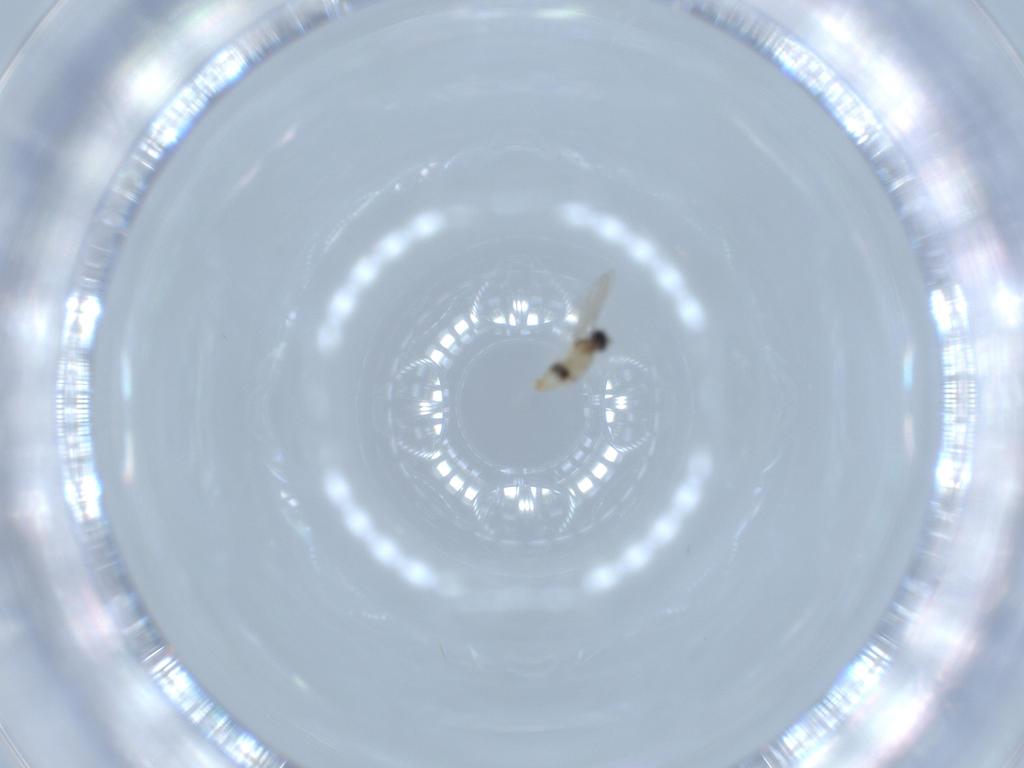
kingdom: Animalia
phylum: Arthropoda
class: Insecta
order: Diptera
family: Cecidomyiidae
